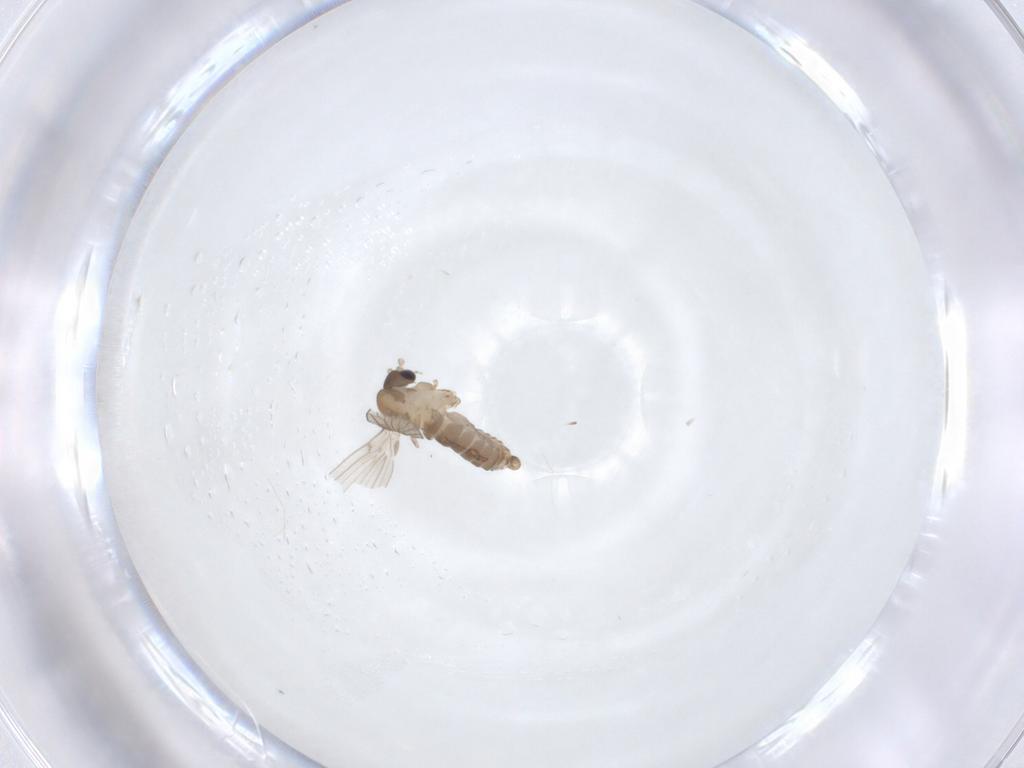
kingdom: Animalia
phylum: Arthropoda
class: Insecta
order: Diptera
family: Psychodidae
